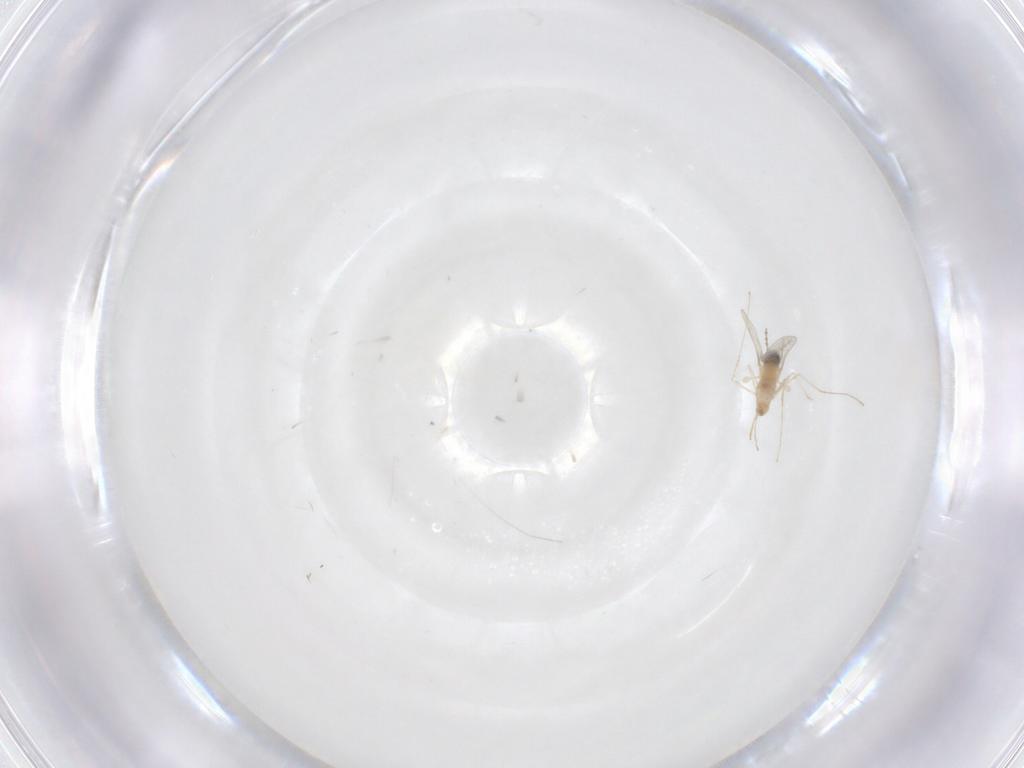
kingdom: Animalia
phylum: Arthropoda
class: Insecta
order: Diptera
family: Cecidomyiidae
